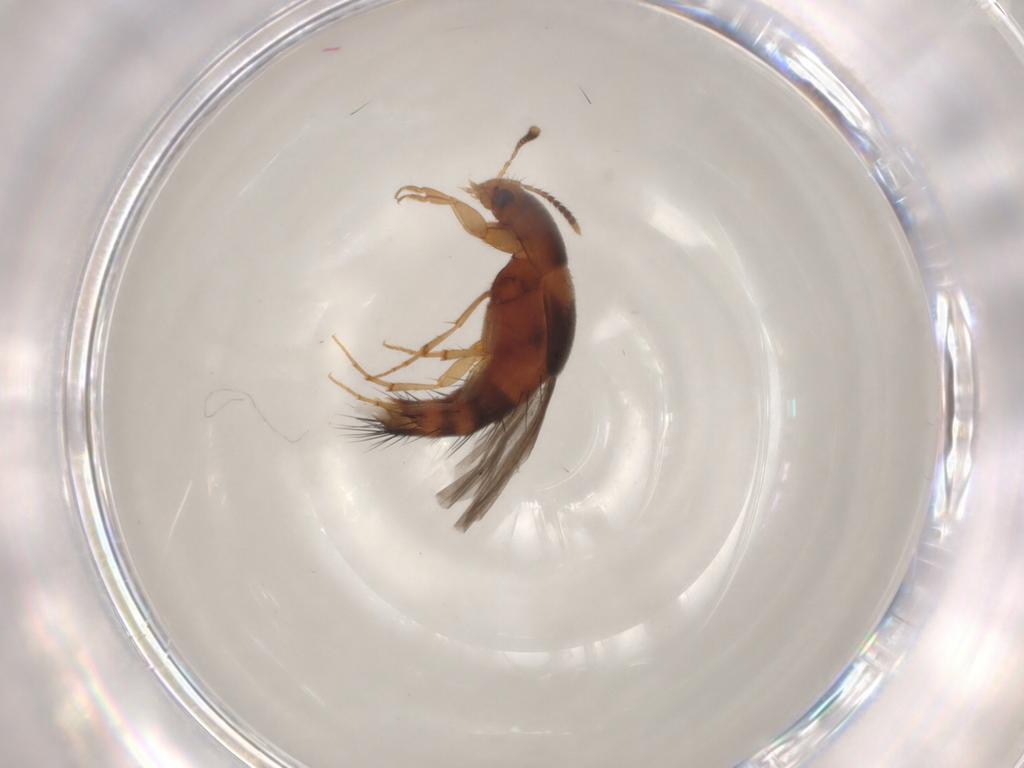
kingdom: Animalia
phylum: Arthropoda
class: Insecta
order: Coleoptera
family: Staphylinidae
